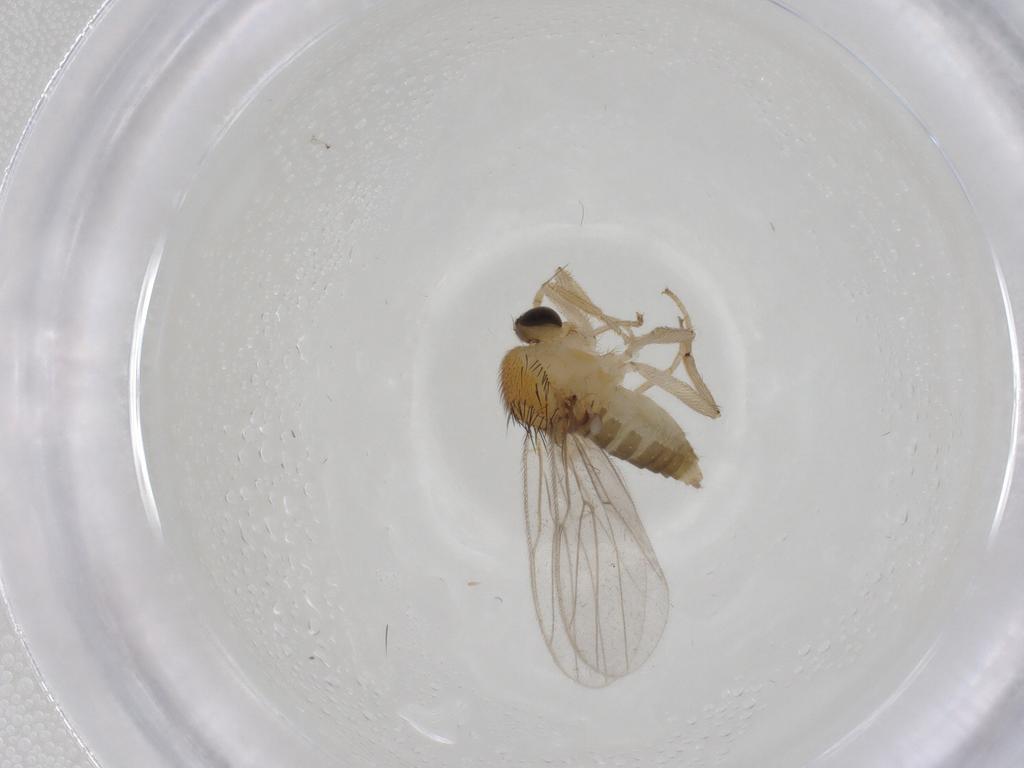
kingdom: Animalia
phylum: Arthropoda
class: Insecta
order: Diptera
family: Hybotidae
